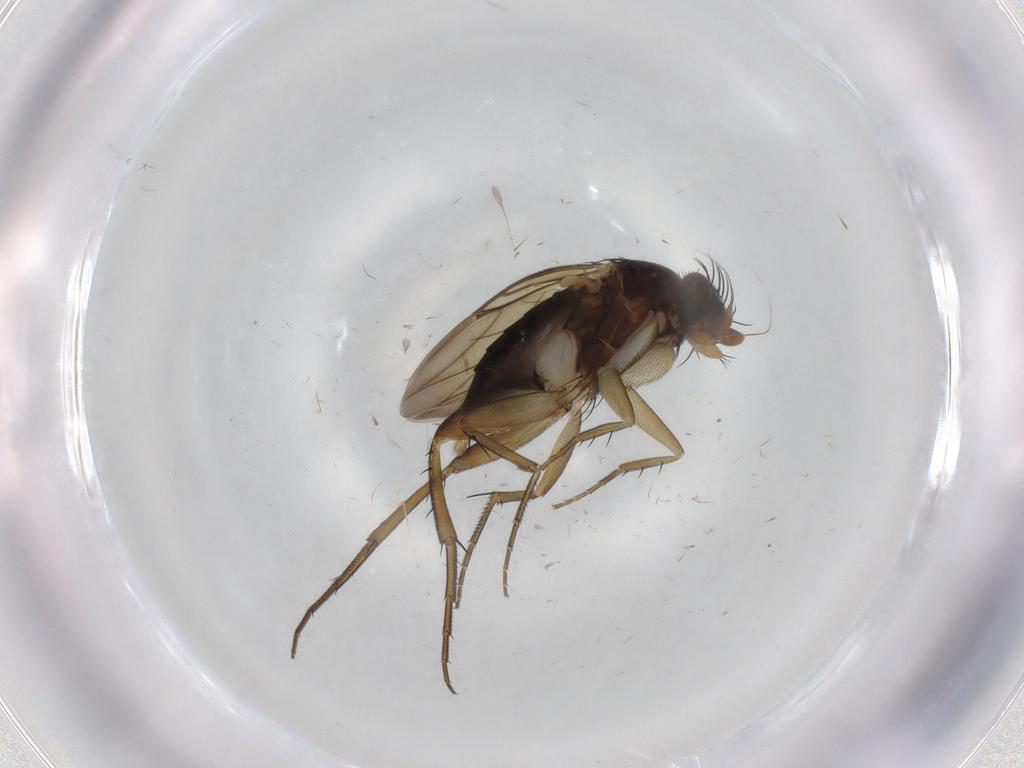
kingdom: Animalia
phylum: Arthropoda
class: Insecta
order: Diptera
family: Phoridae
